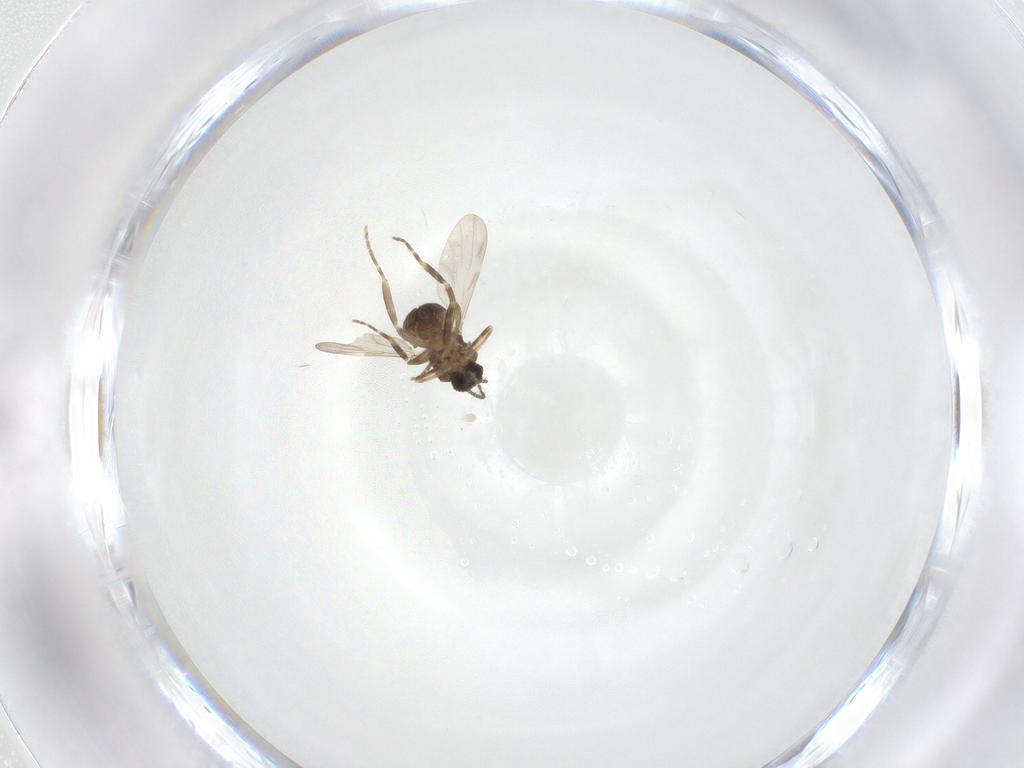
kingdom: Animalia
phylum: Arthropoda
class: Insecta
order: Diptera
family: Ceratopogonidae
